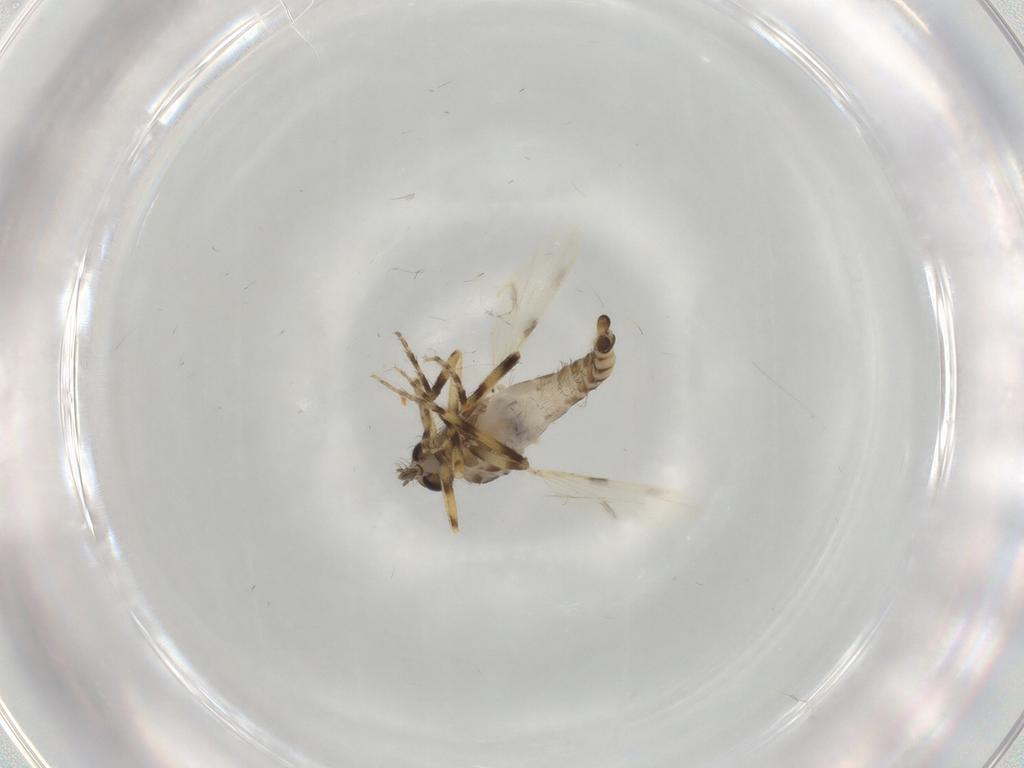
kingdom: Animalia
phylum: Arthropoda
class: Insecta
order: Diptera
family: Ceratopogonidae
